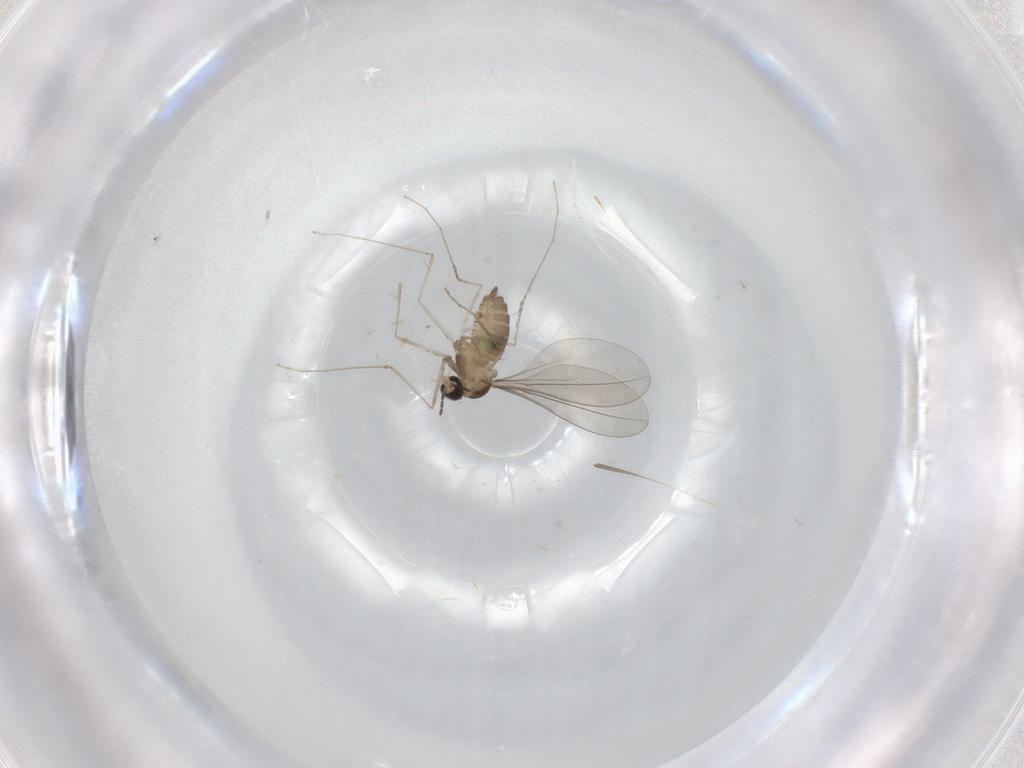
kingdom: Animalia
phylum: Arthropoda
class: Insecta
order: Diptera
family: Cecidomyiidae
